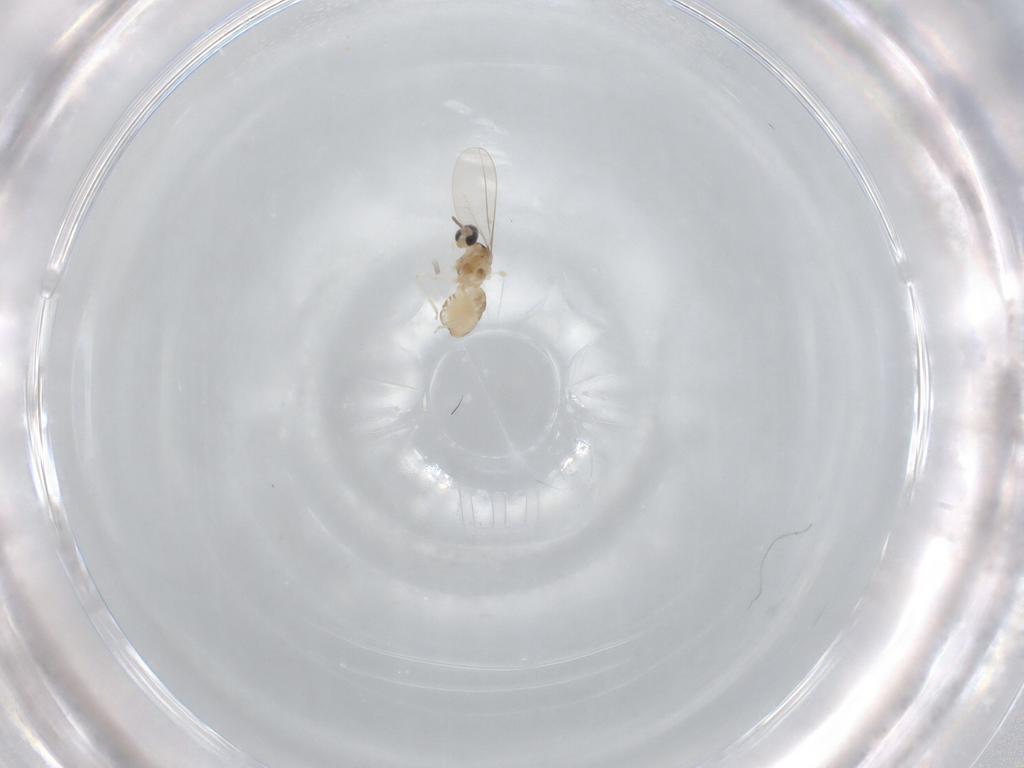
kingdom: Animalia
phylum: Arthropoda
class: Insecta
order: Diptera
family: Cecidomyiidae
